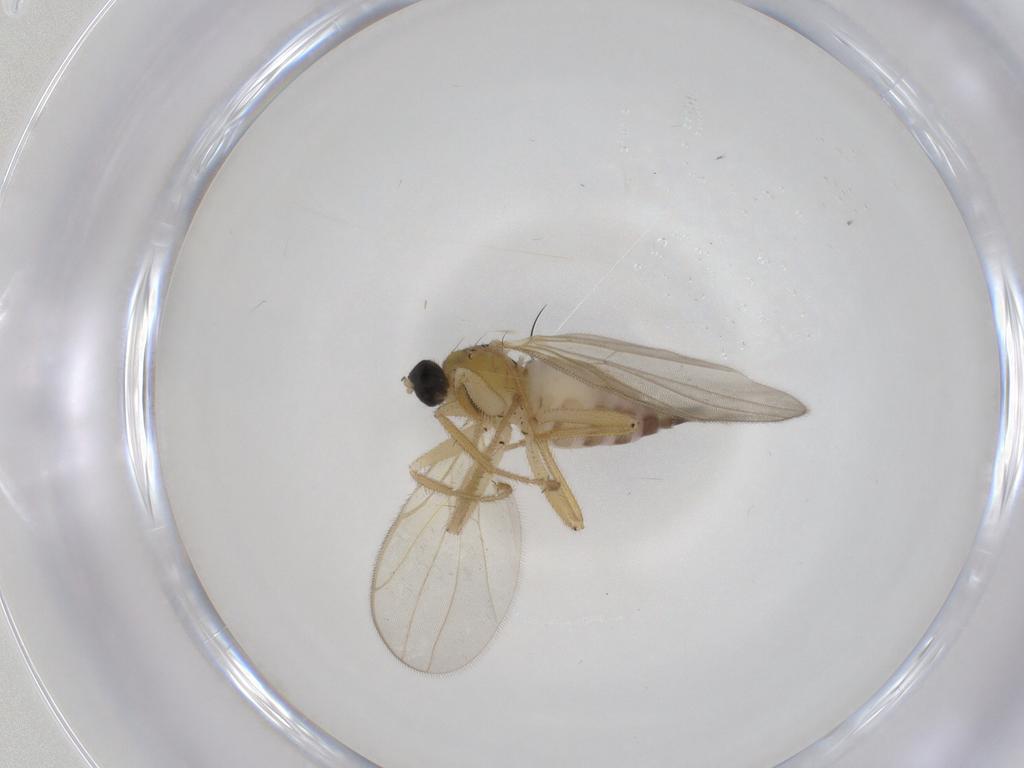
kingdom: Animalia
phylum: Arthropoda
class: Insecta
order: Diptera
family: Hybotidae
